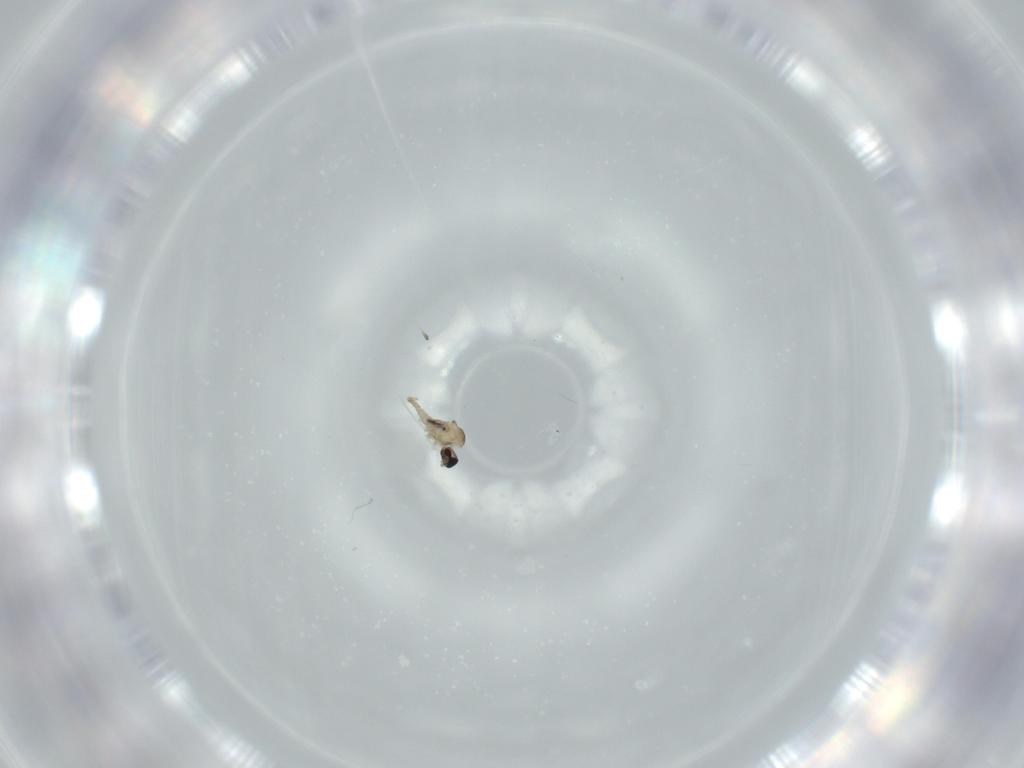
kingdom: Animalia
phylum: Arthropoda
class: Insecta
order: Diptera
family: Cecidomyiidae
